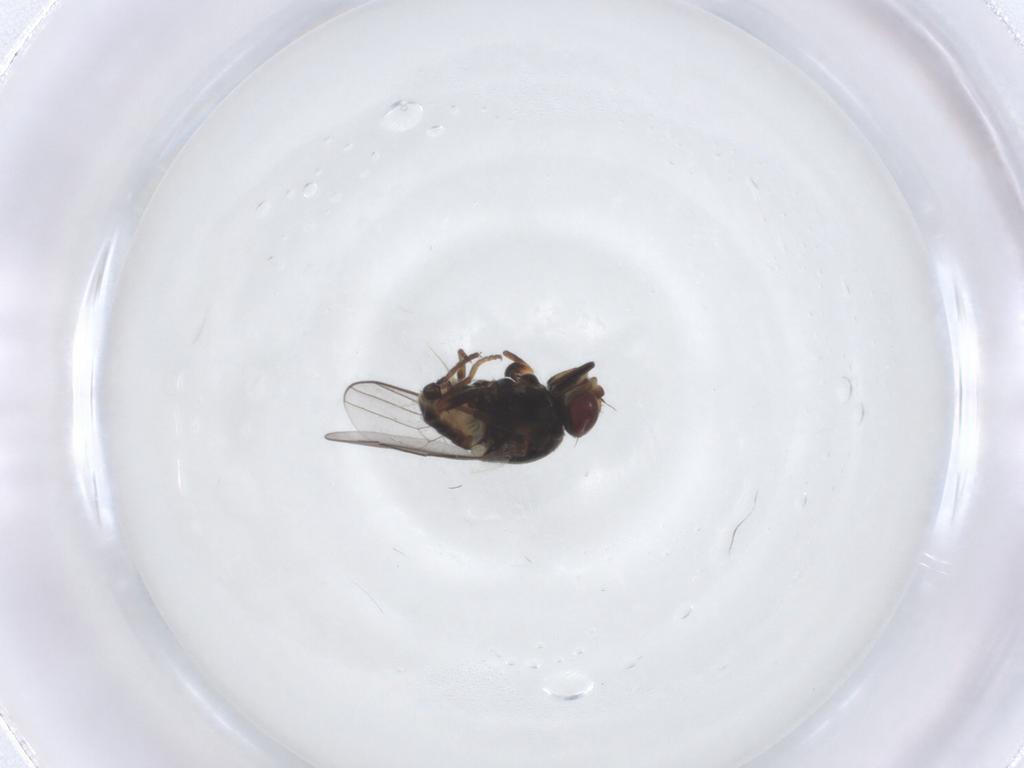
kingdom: Animalia
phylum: Arthropoda
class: Insecta
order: Diptera
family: Chloropidae
